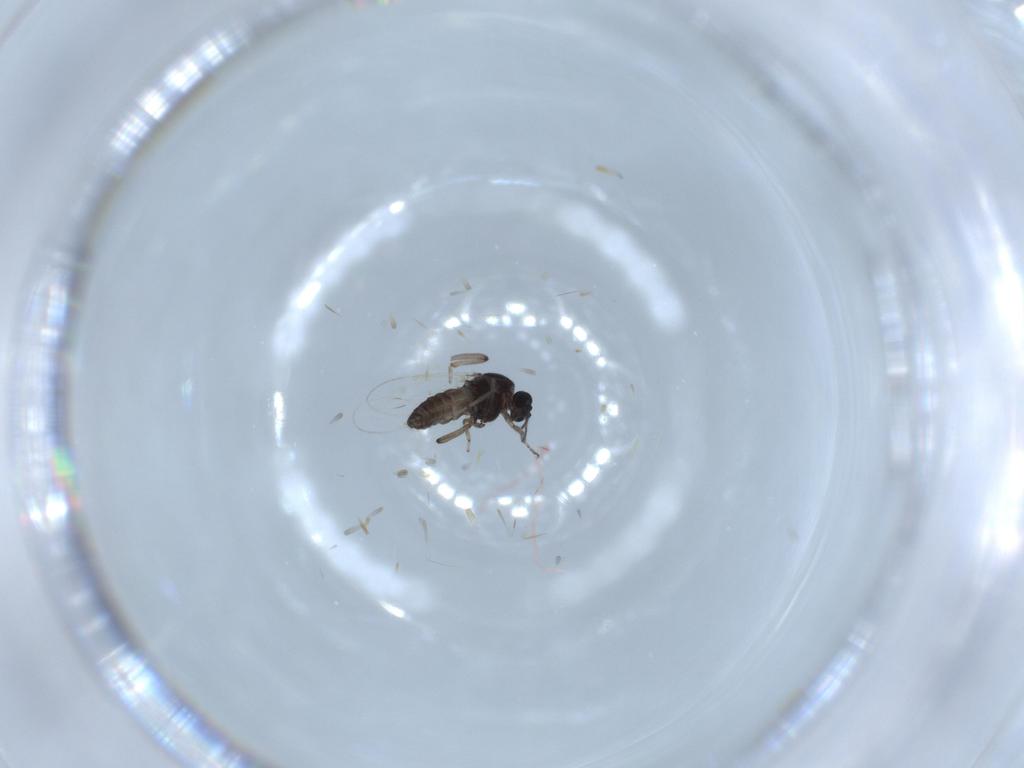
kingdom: Animalia
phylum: Arthropoda
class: Insecta
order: Diptera
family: Ceratopogonidae
